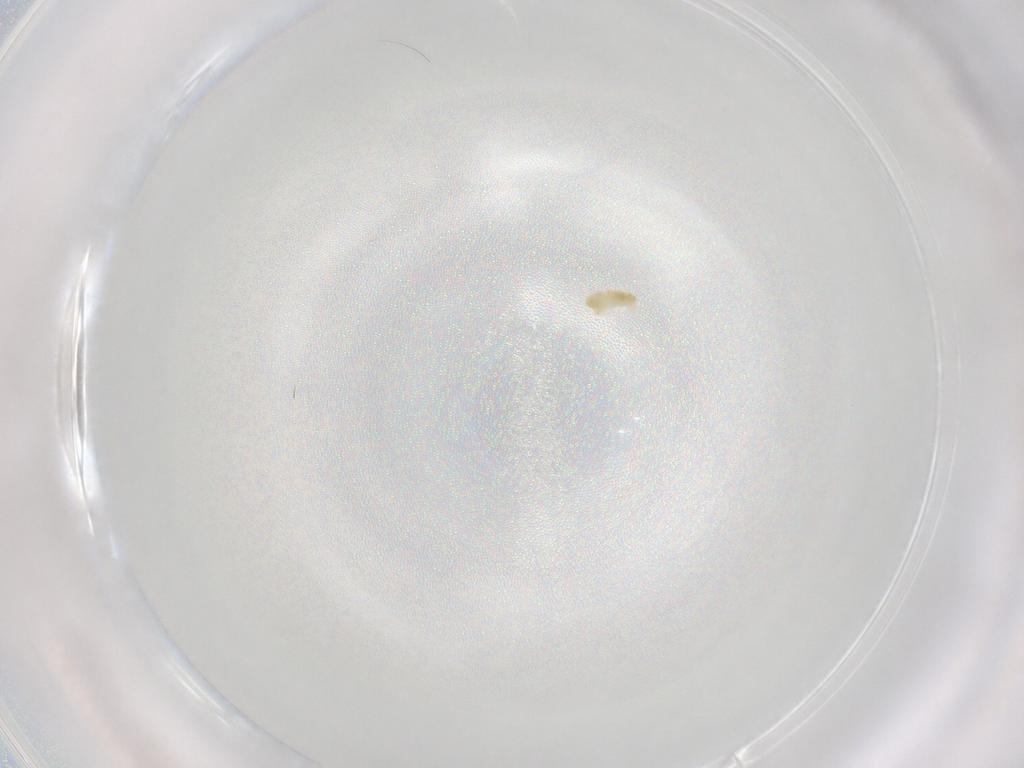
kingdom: Animalia
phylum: Arthropoda
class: Arachnida
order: Trombidiformes
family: Eupodidae
